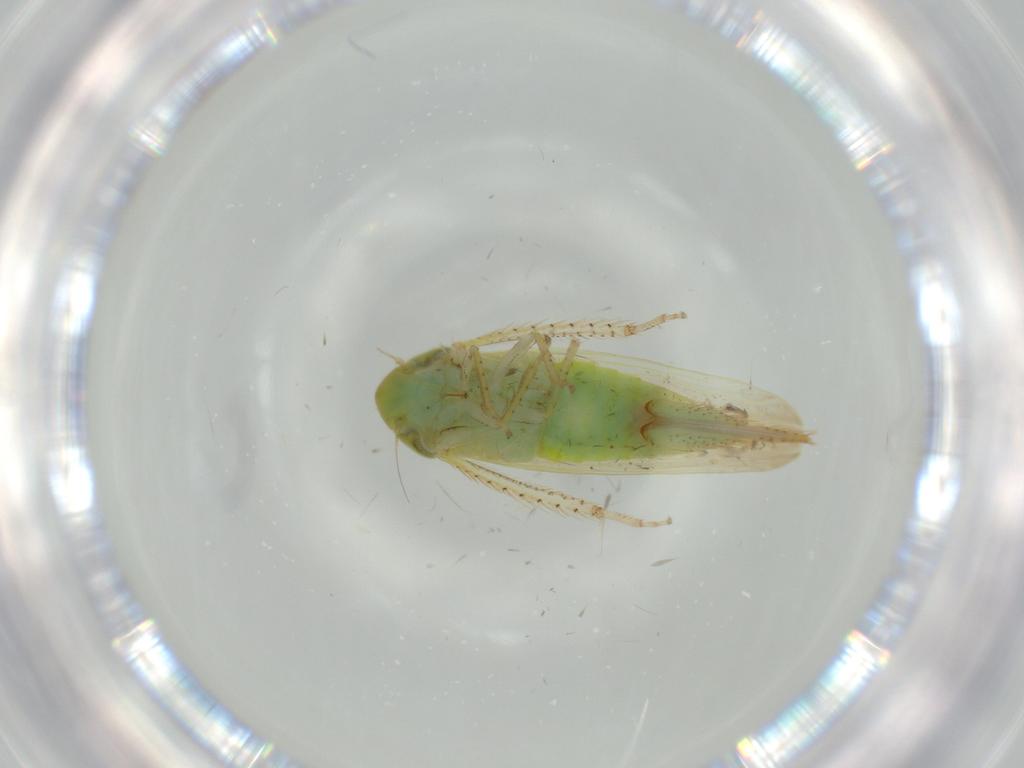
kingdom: Animalia
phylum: Arthropoda
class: Insecta
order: Hemiptera
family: Cicadellidae
